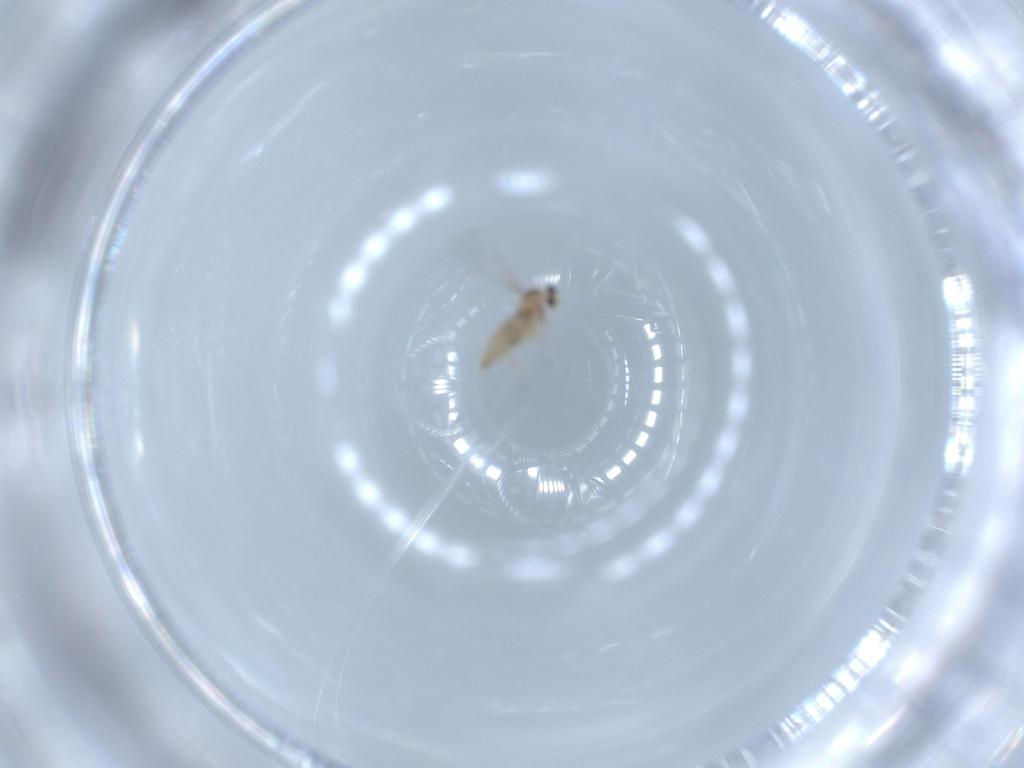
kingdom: Animalia
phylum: Arthropoda
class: Insecta
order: Diptera
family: Cecidomyiidae
